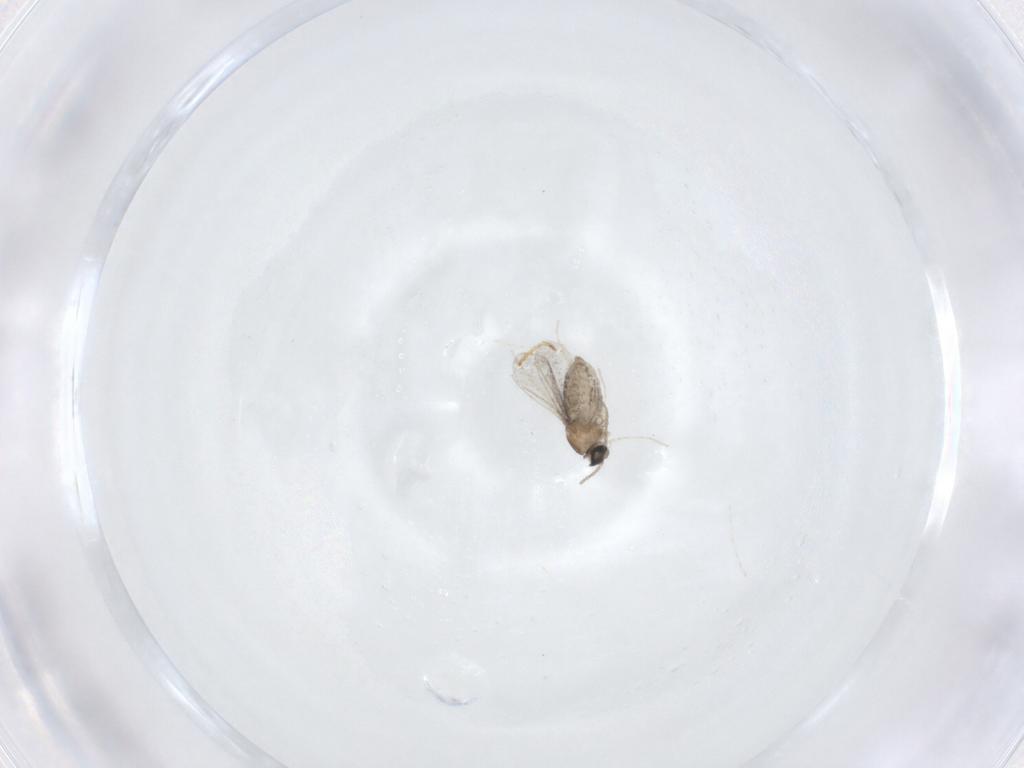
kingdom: Animalia
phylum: Arthropoda
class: Insecta
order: Diptera
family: Cecidomyiidae
